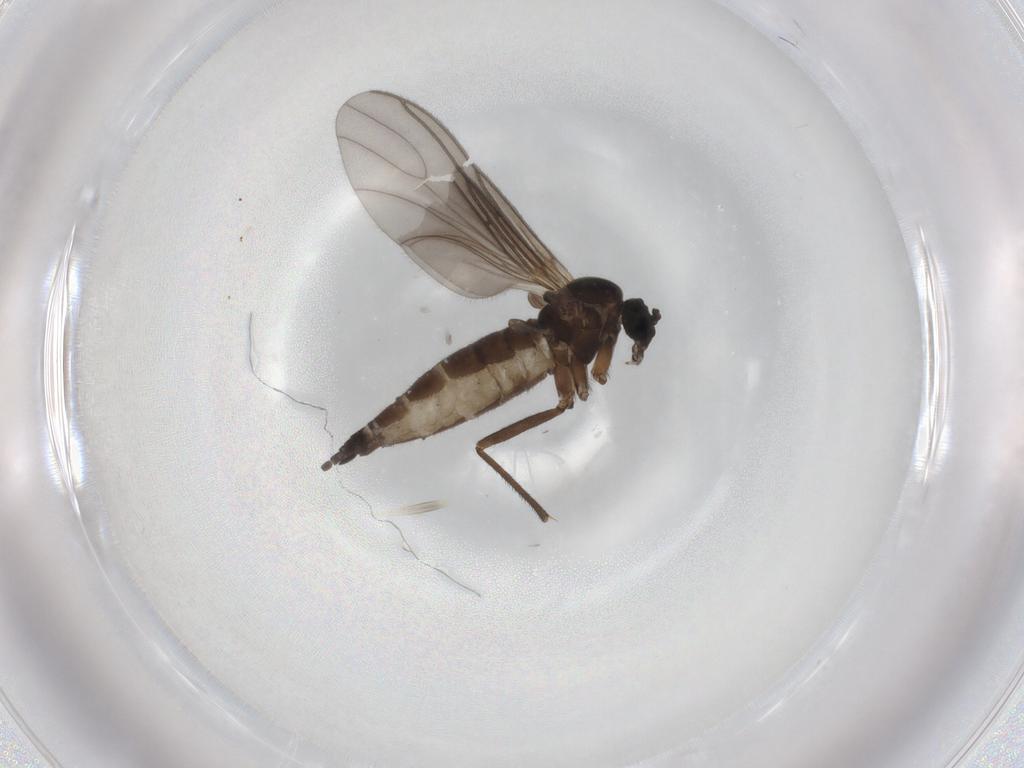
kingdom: Animalia
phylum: Arthropoda
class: Insecta
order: Diptera
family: Sciaridae
